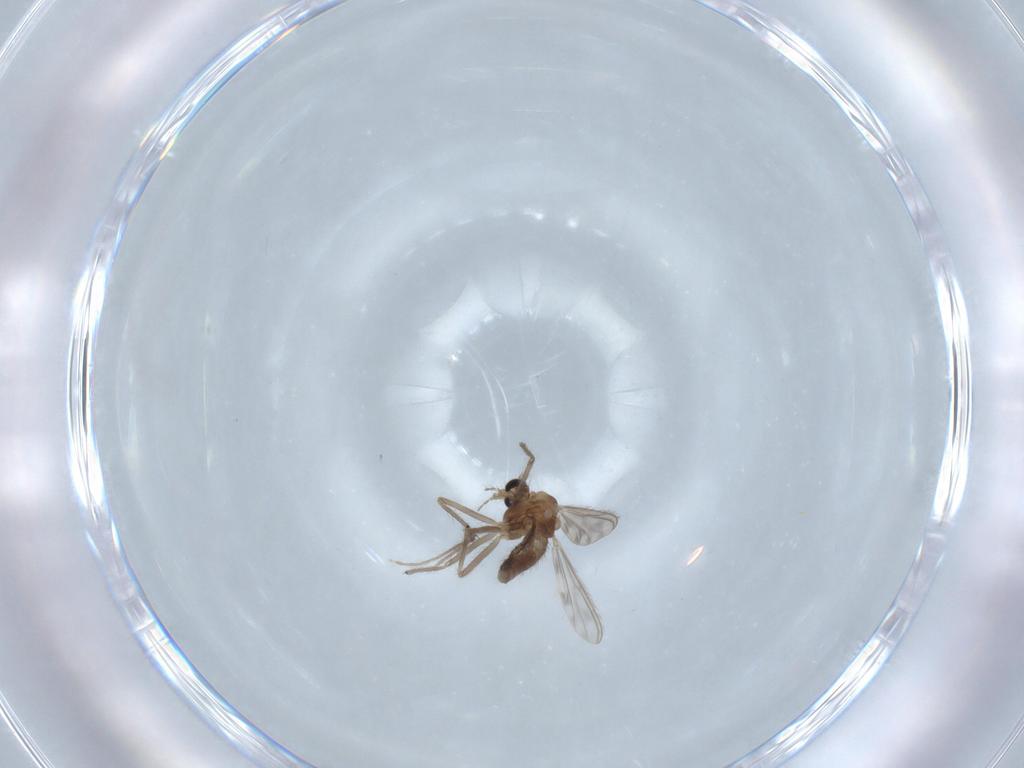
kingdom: Animalia
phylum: Arthropoda
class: Insecta
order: Diptera
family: Chironomidae
